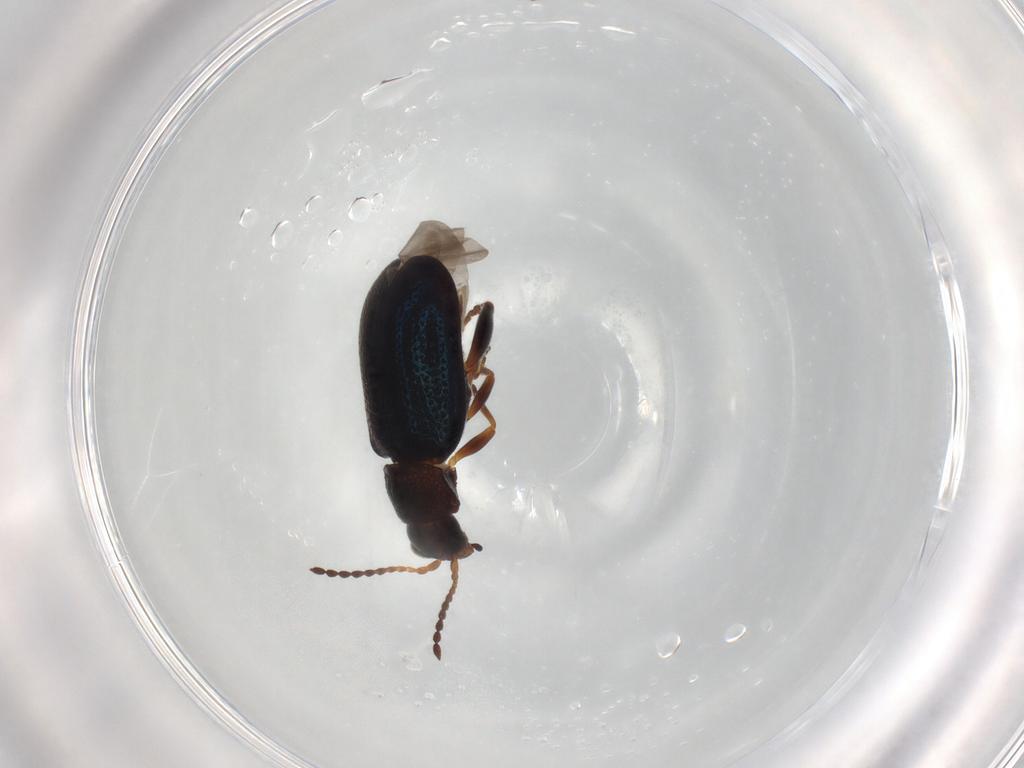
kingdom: Animalia
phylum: Arthropoda
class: Insecta
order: Coleoptera
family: Chrysomelidae
